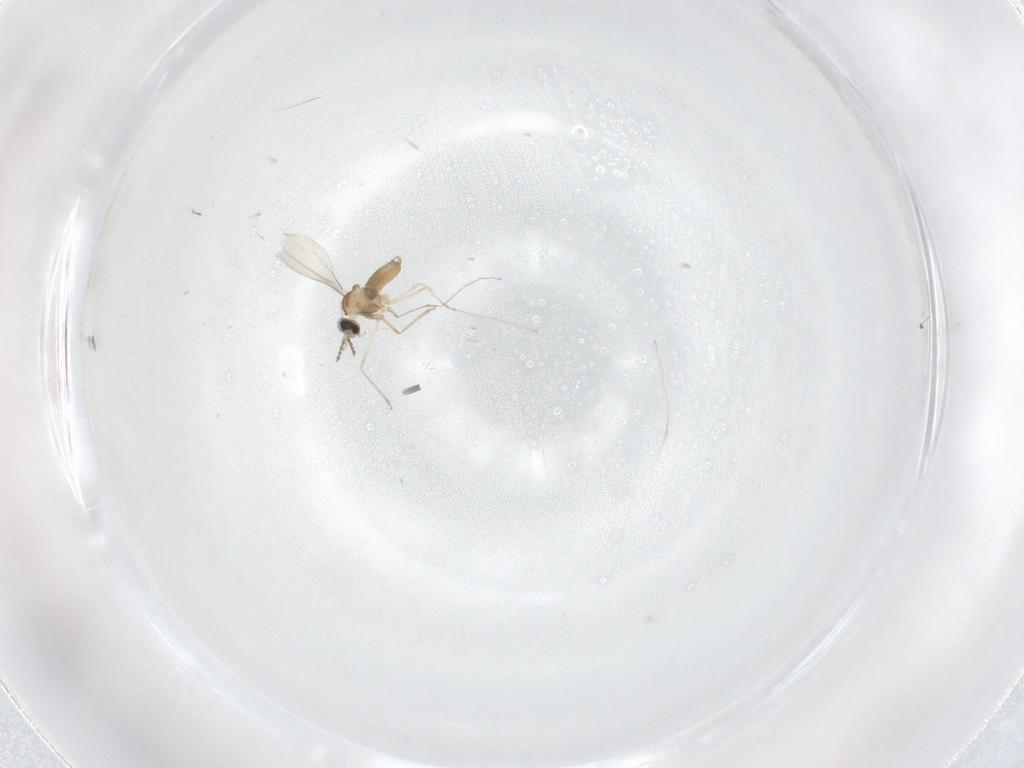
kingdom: Animalia
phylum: Arthropoda
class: Insecta
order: Diptera
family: Cecidomyiidae
